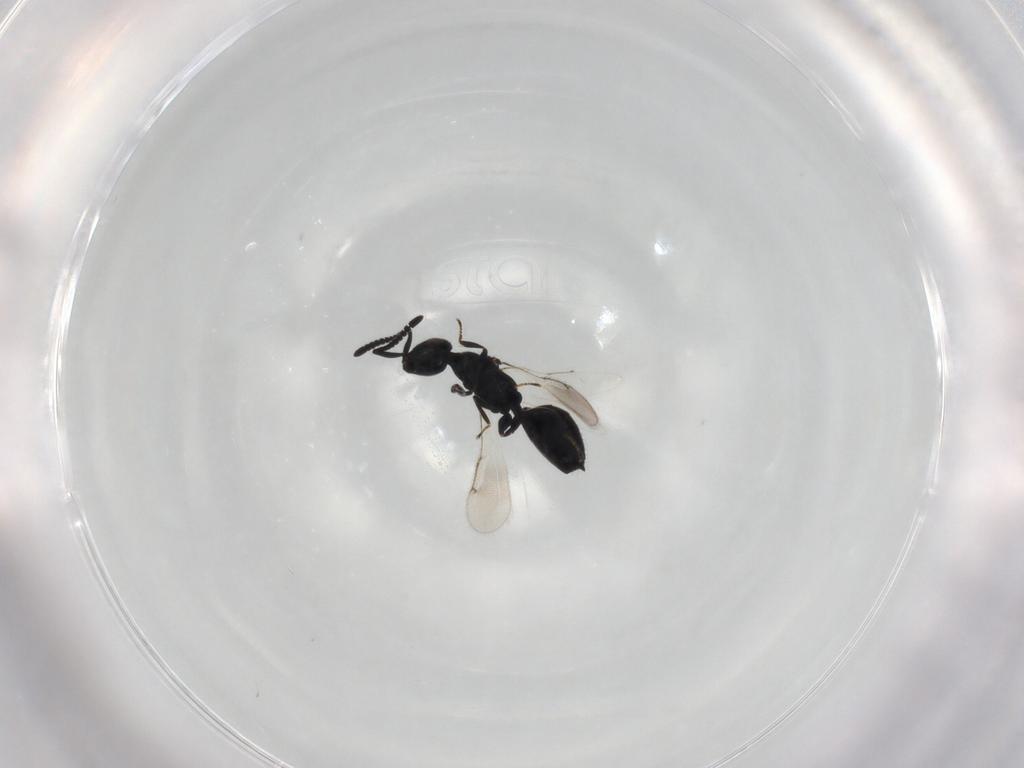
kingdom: Animalia
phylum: Arthropoda
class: Insecta
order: Hymenoptera
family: Spalangiidae
